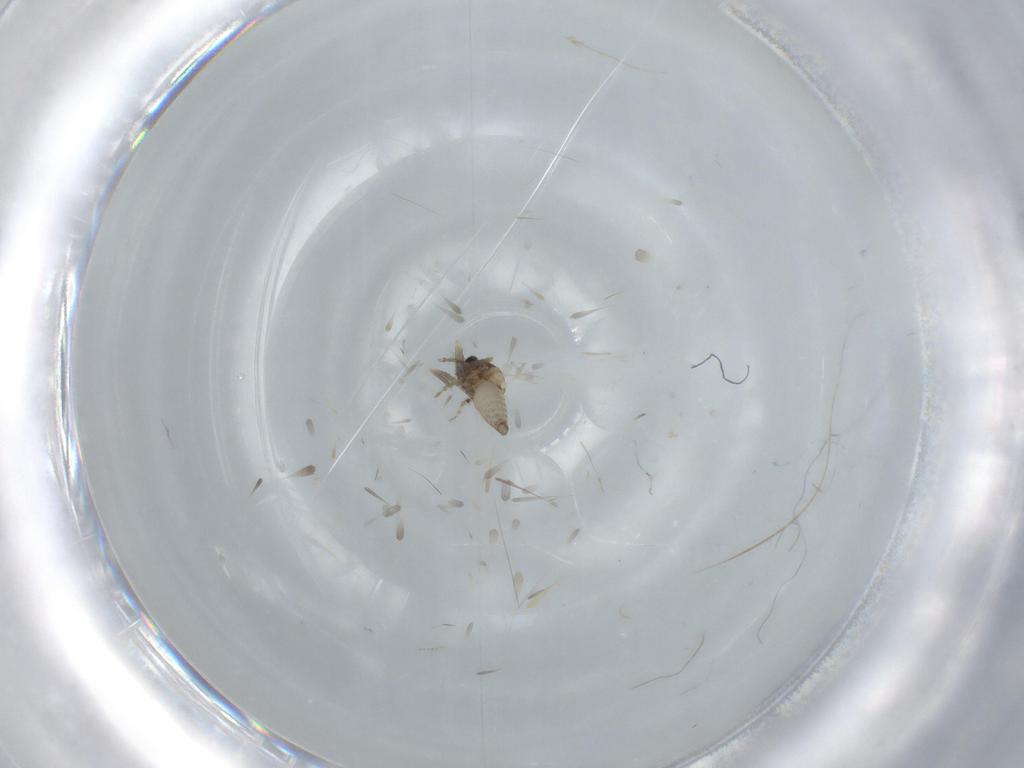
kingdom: Animalia
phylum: Arthropoda
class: Insecta
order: Diptera
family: Ceratopogonidae
